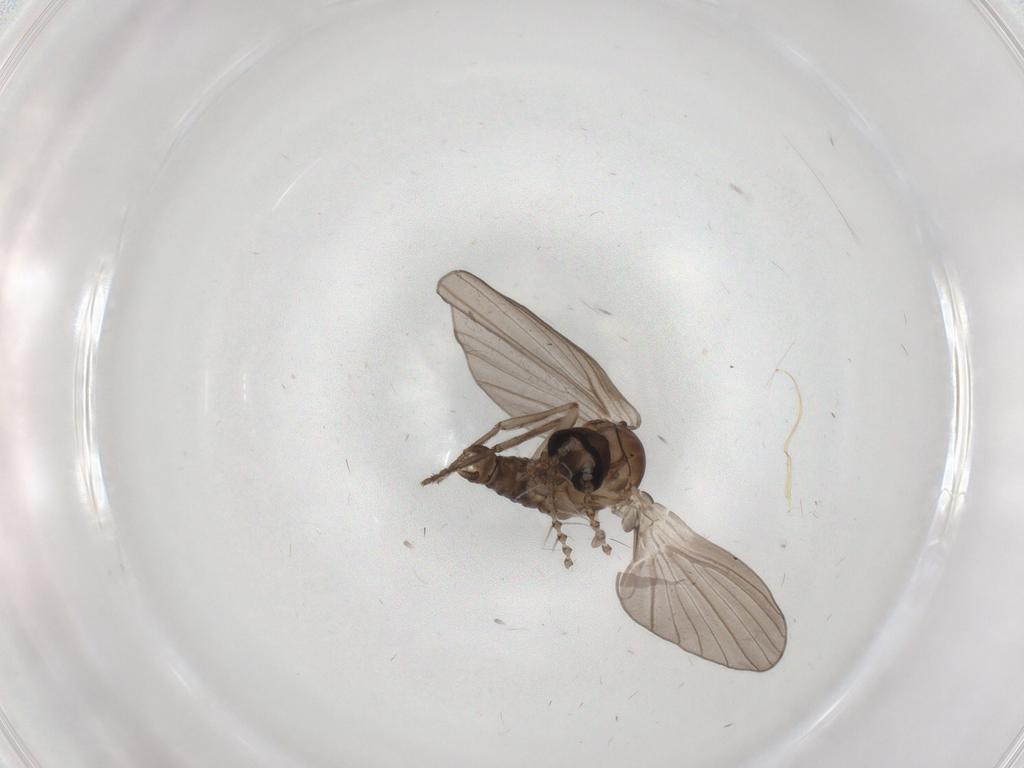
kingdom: Animalia
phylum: Arthropoda
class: Insecta
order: Diptera
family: Psychodidae
